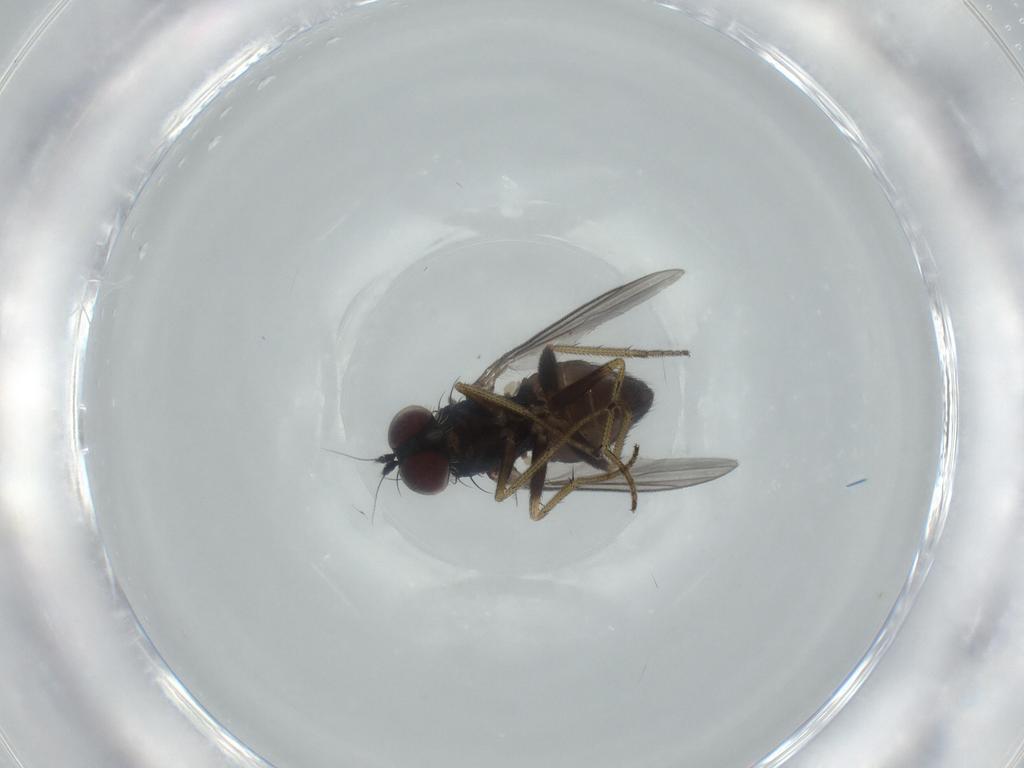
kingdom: Animalia
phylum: Arthropoda
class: Insecta
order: Diptera
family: Dolichopodidae
